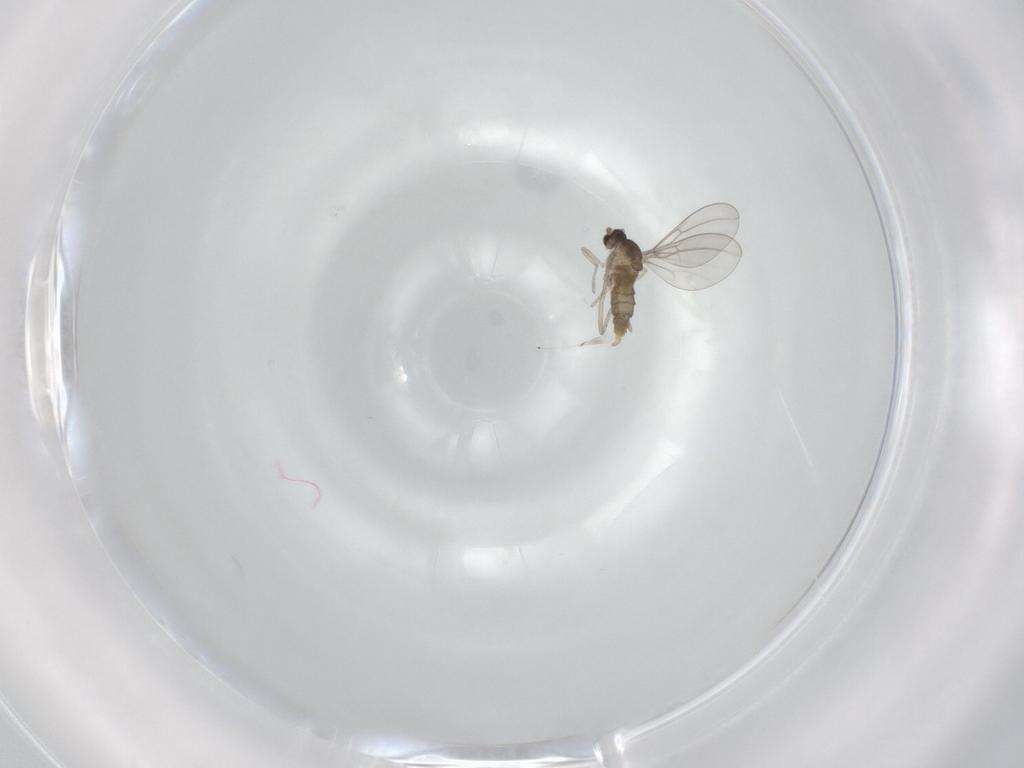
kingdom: Animalia
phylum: Arthropoda
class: Insecta
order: Diptera
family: Cecidomyiidae
